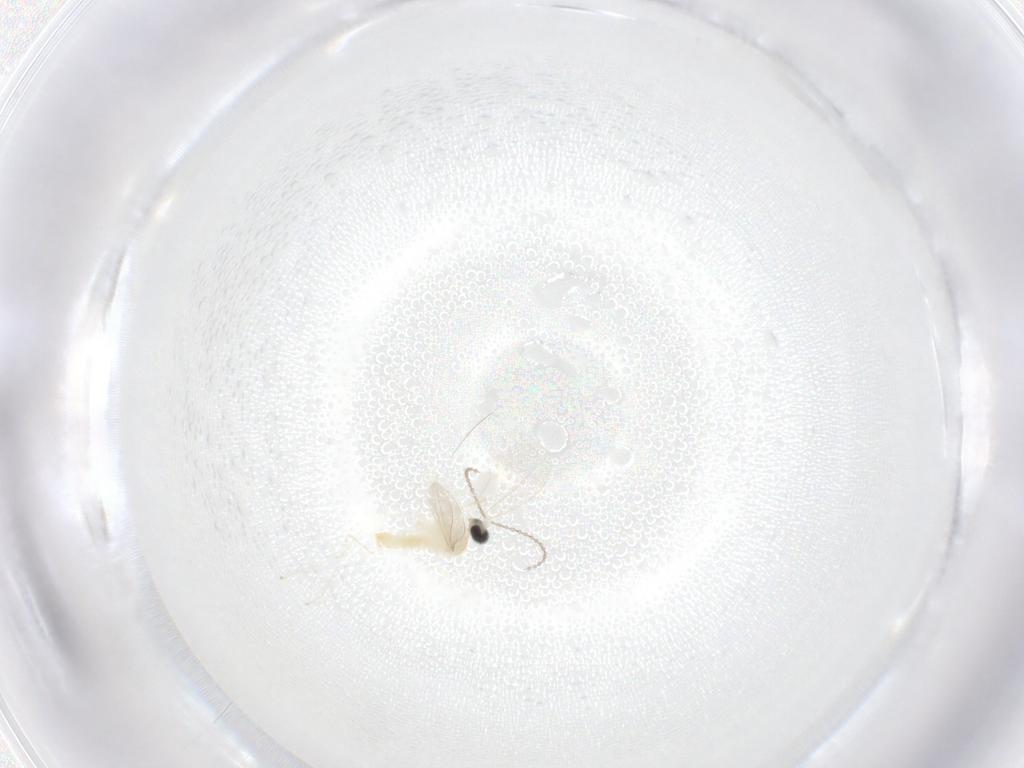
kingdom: Animalia
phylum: Arthropoda
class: Insecta
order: Diptera
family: Cecidomyiidae
